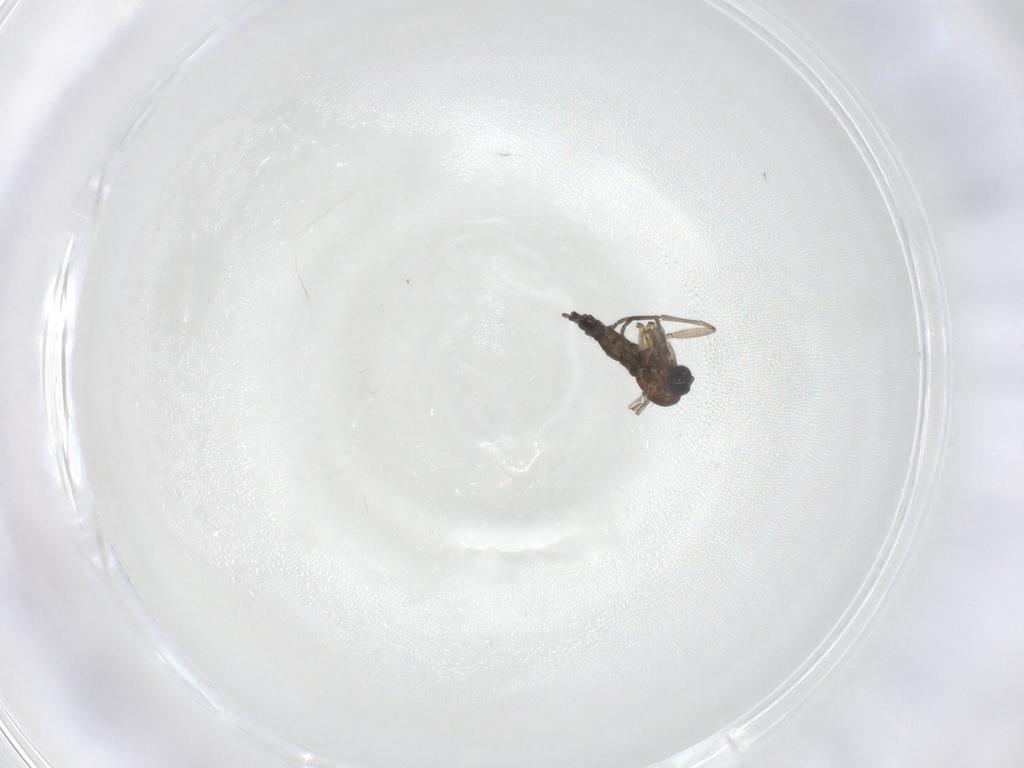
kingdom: Animalia
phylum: Arthropoda
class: Insecta
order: Diptera
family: Sciaridae
